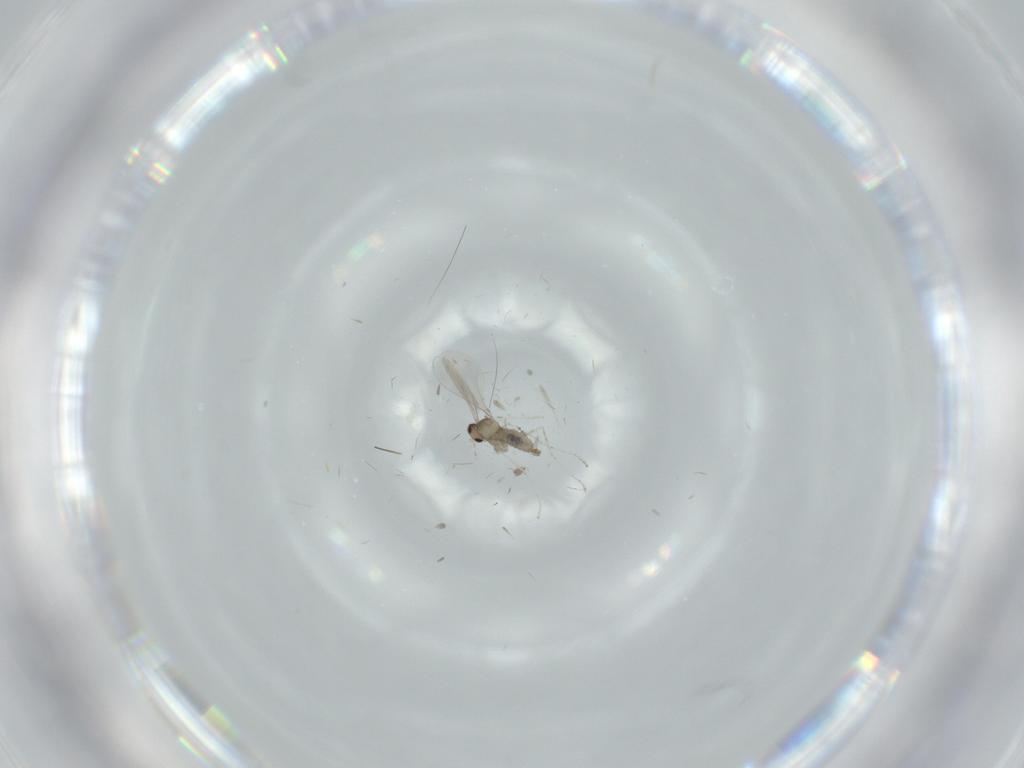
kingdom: Animalia
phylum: Arthropoda
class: Insecta
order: Diptera
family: Cecidomyiidae
